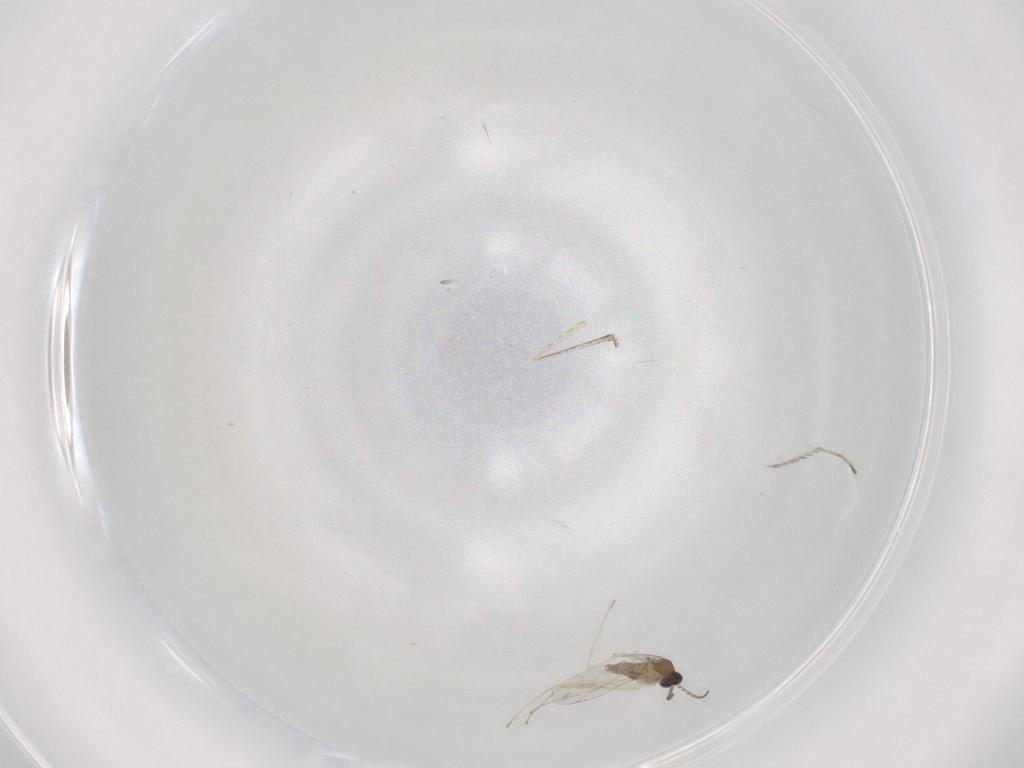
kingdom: Animalia
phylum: Arthropoda
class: Insecta
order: Diptera
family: Cecidomyiidae
